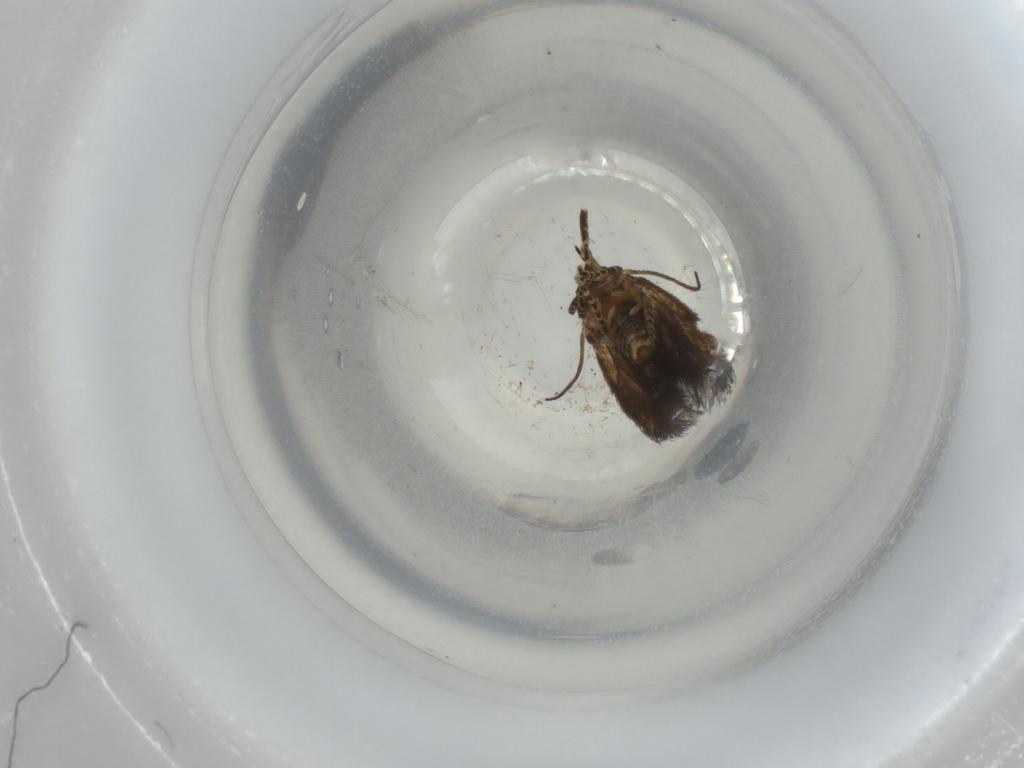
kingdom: Animalia
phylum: Arthropoda
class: Insecta
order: Lepidoptera
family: Gelechiidae
